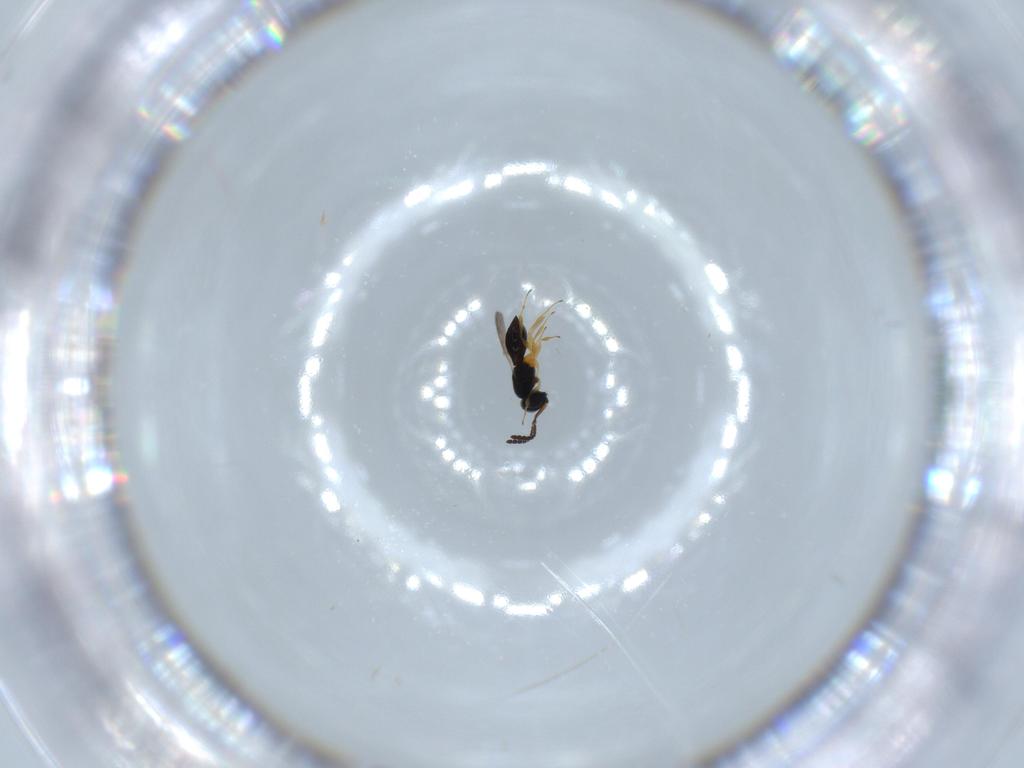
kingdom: Animalia
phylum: Arthropoda
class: Insecta
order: Hymenoptera
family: Scelionidae
